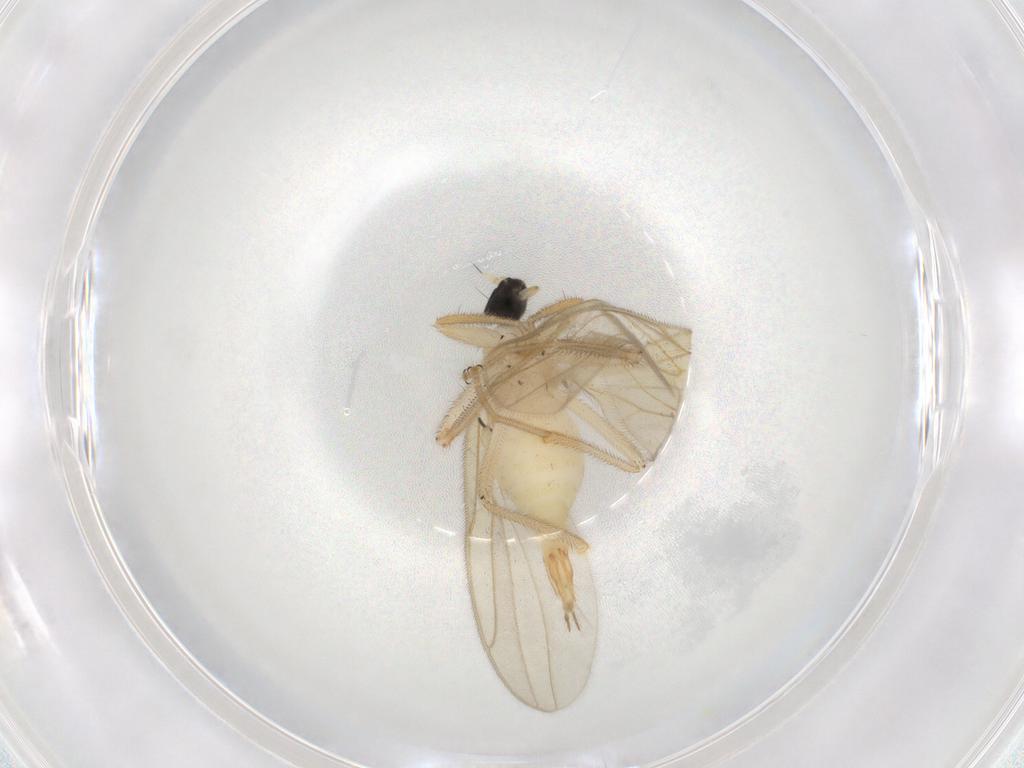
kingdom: Animalia
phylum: Arthropoda
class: Insecta
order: Diptera
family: Hybotidae
